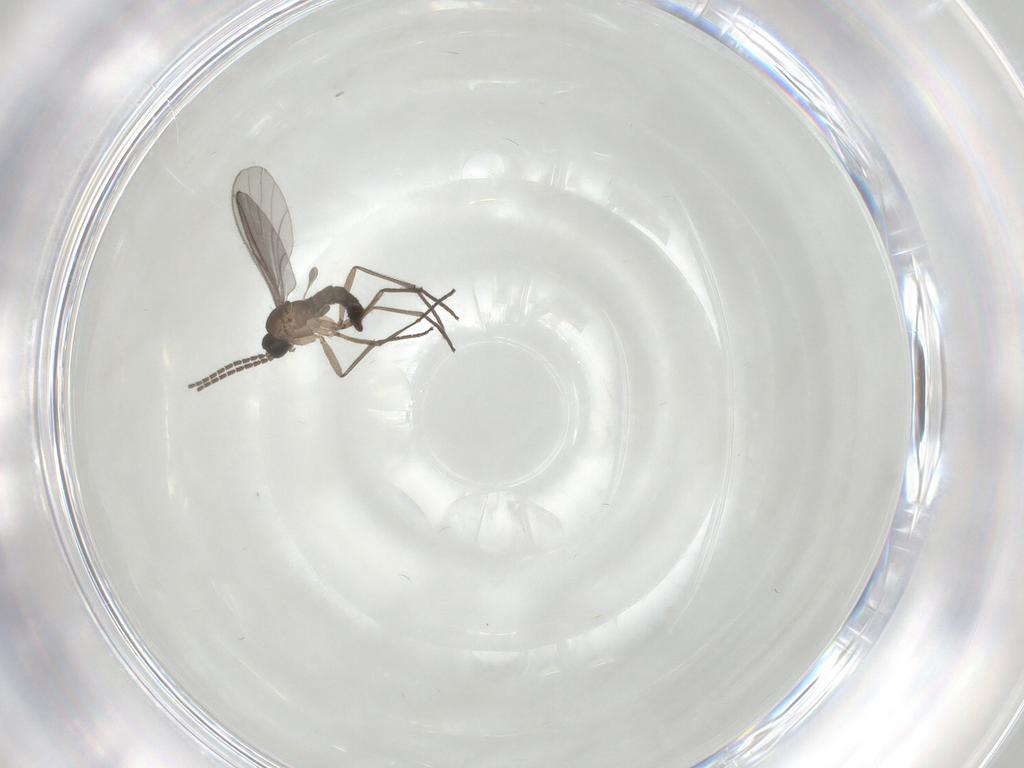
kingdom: Animalia
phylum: Arthropoda
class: Insecta
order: Diptera
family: Sciaridae
